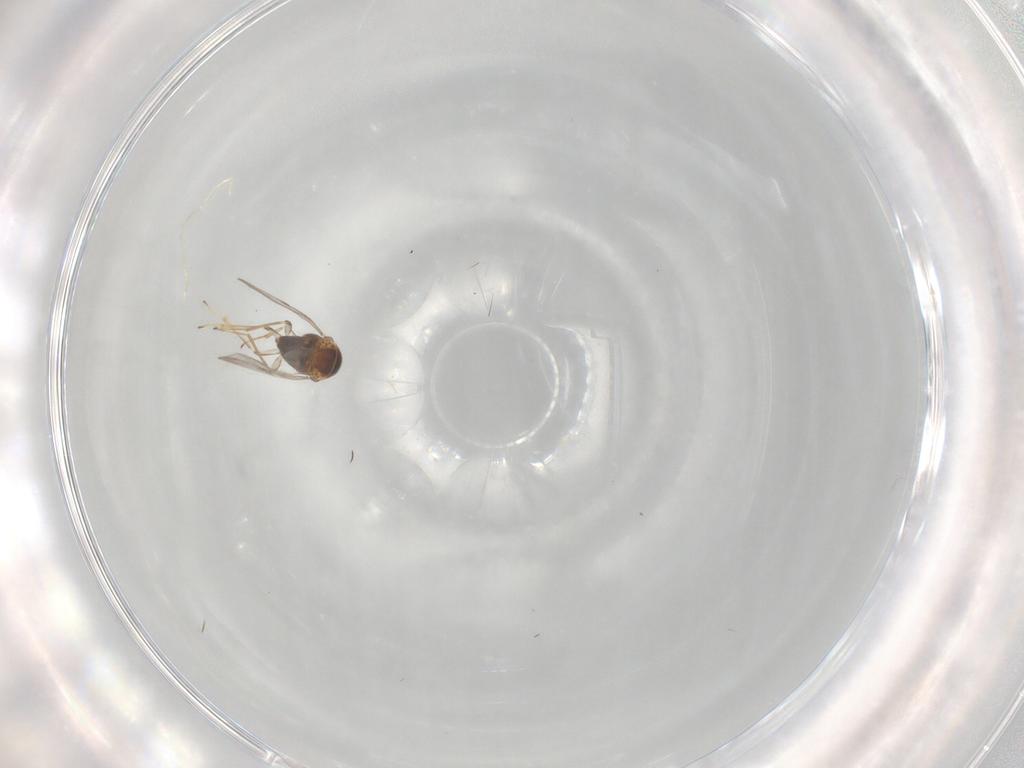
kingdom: Animalia
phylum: Arthropoda
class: Insecta
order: Hymenoptera
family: Encyrtidae
